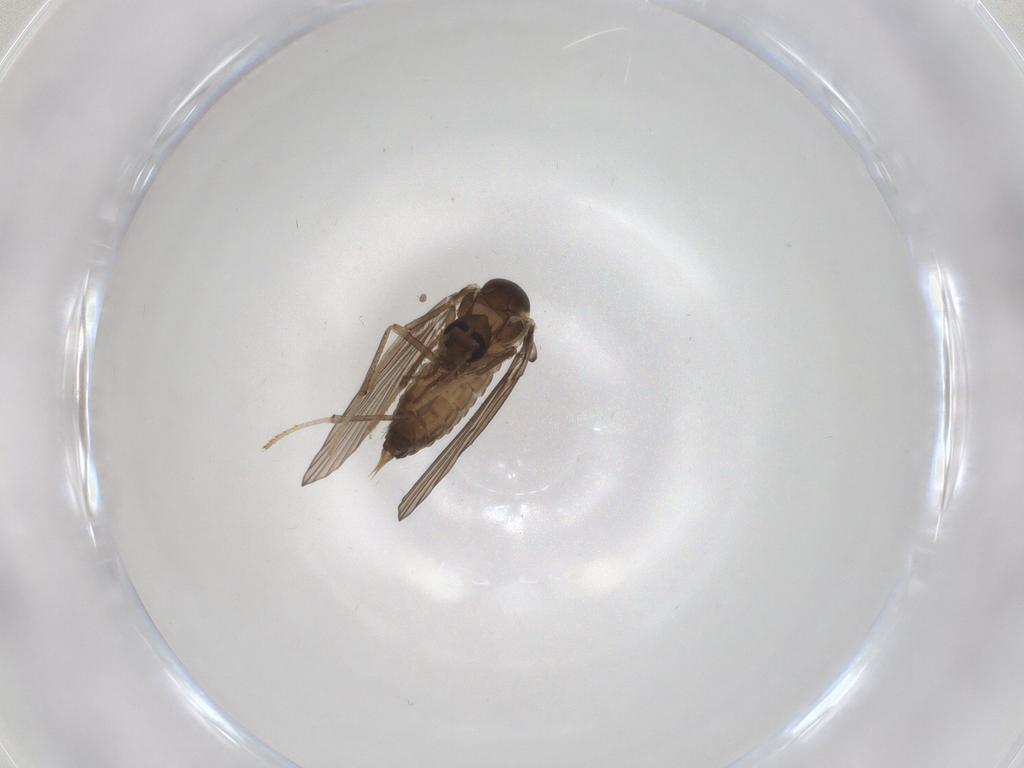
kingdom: Animalia
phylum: Arthropoda
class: Insecta
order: Diptera
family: Psychodidae
